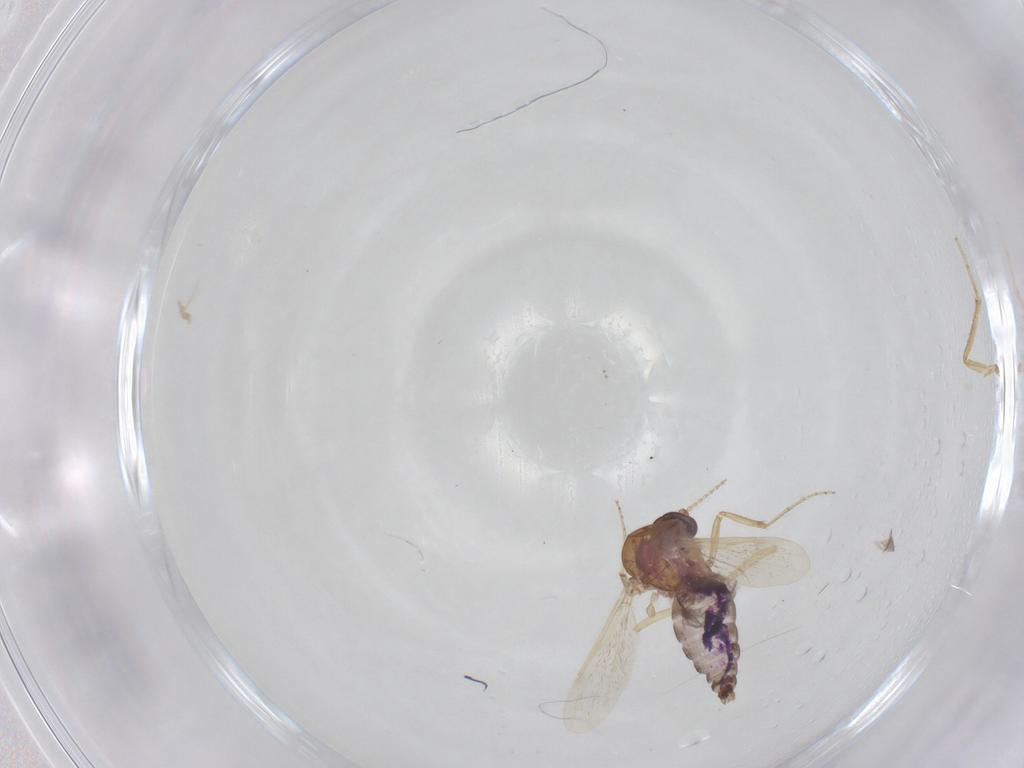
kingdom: Animalia
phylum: Arthropoda
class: Insecta
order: Diptera
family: Ceratopogonidae
